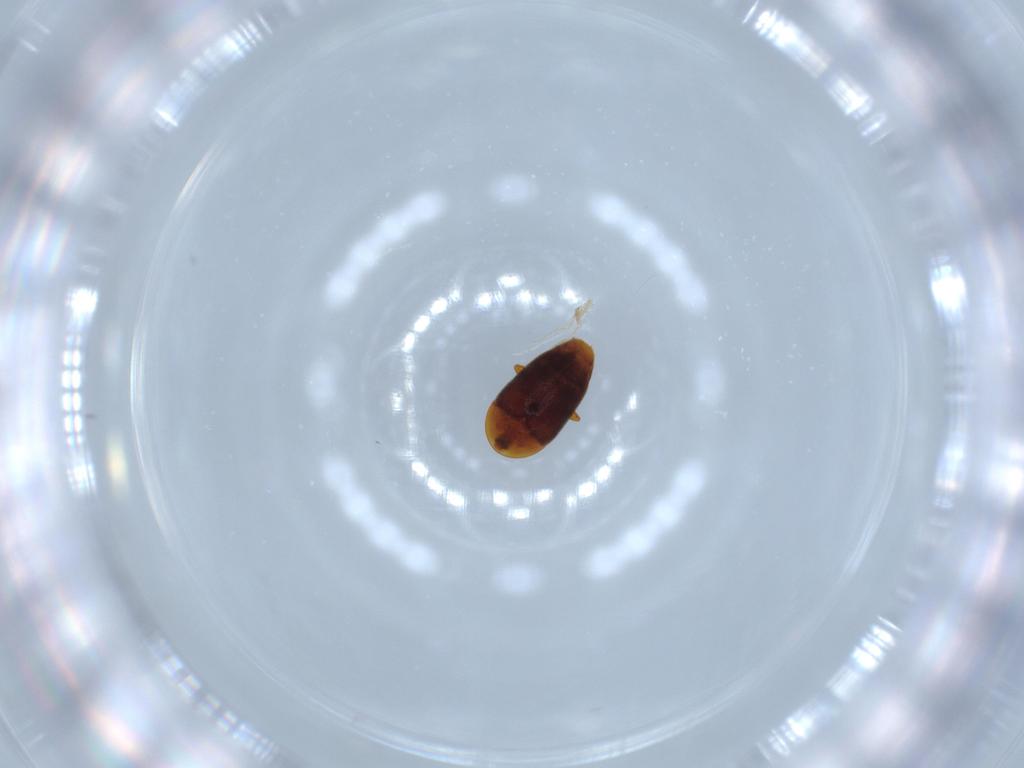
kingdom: Animalia
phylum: Arthropoda
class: Insecta
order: Coleoptera
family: Corylophidae
